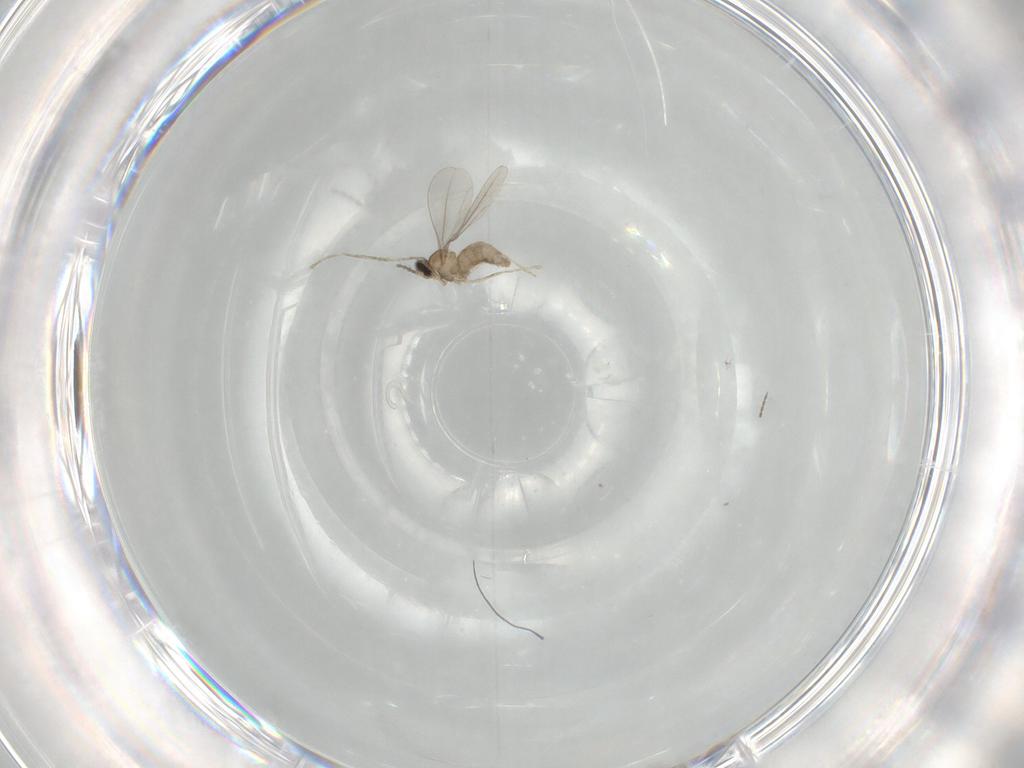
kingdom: Animalia
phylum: Arthropoda
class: Insecta
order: Diptera
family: Cecidomyiidae
